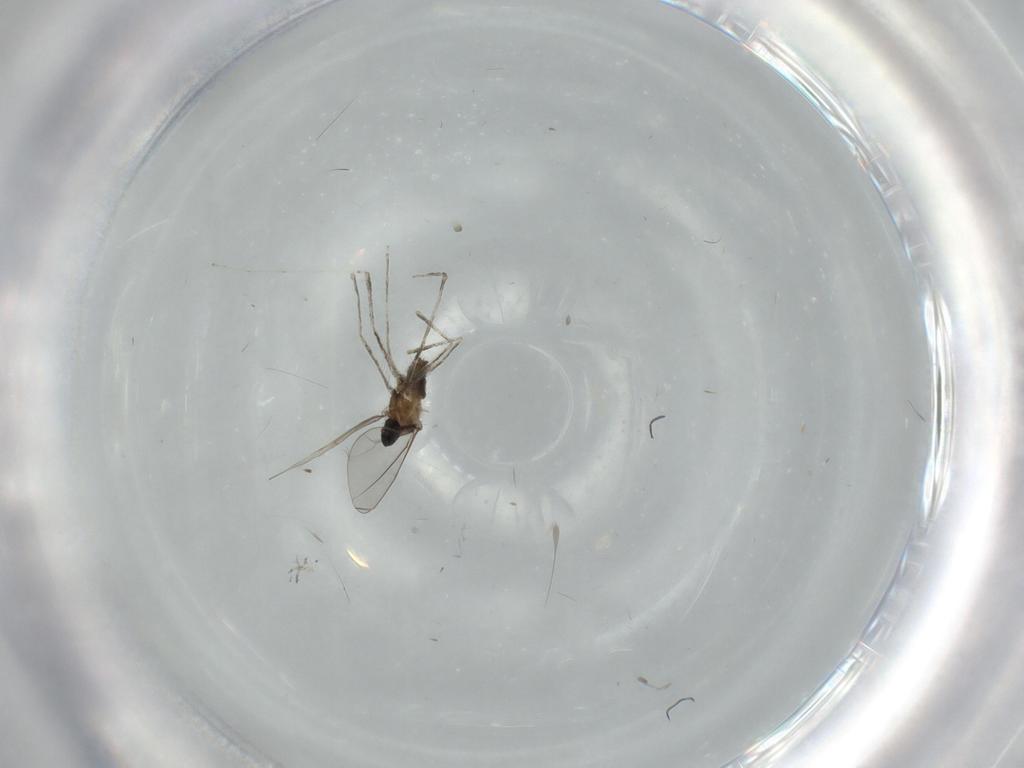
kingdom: Animalia
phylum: Arthropoda
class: Insecta
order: Diptera
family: Cecidomyiidae
